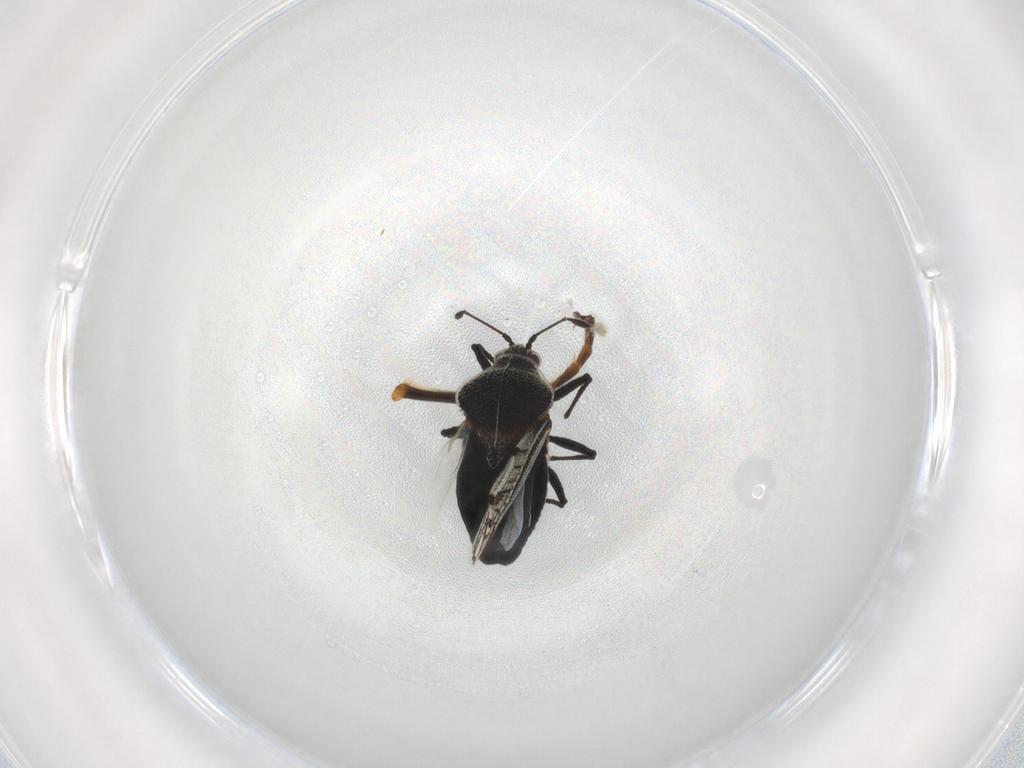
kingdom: Animalia
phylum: Arthropoda
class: Insecta
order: Hemiptera
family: Tingidae
